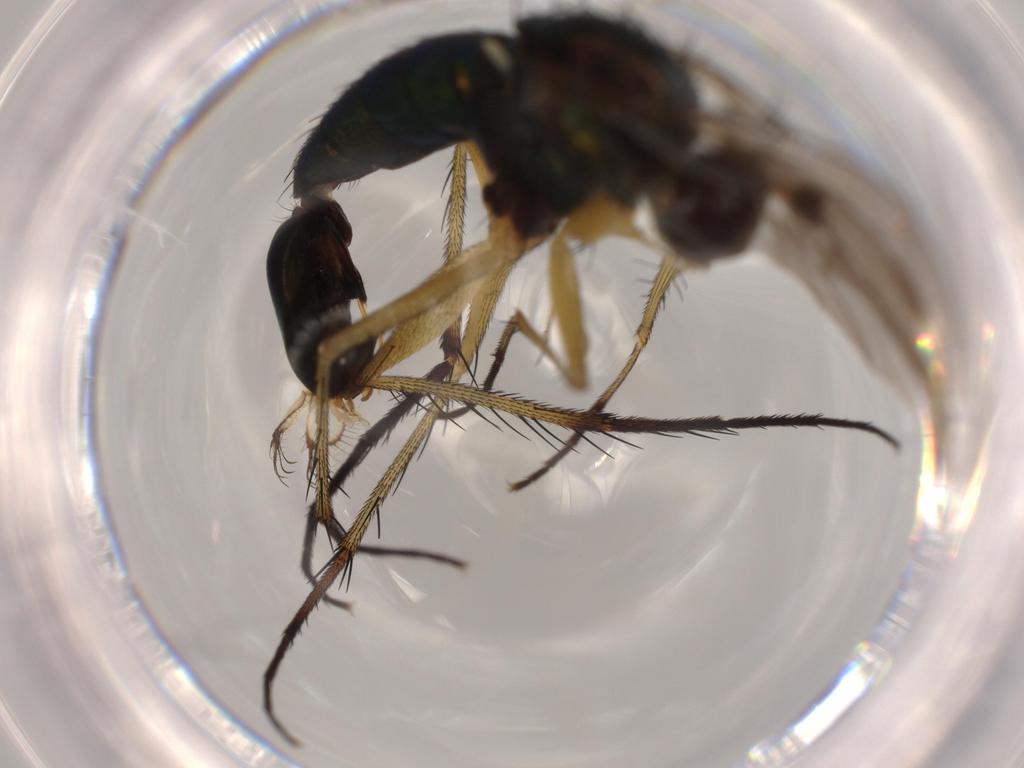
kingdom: Animalia
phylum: Arthropoda
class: Insecta
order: Diptera
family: Dolichopodidae
